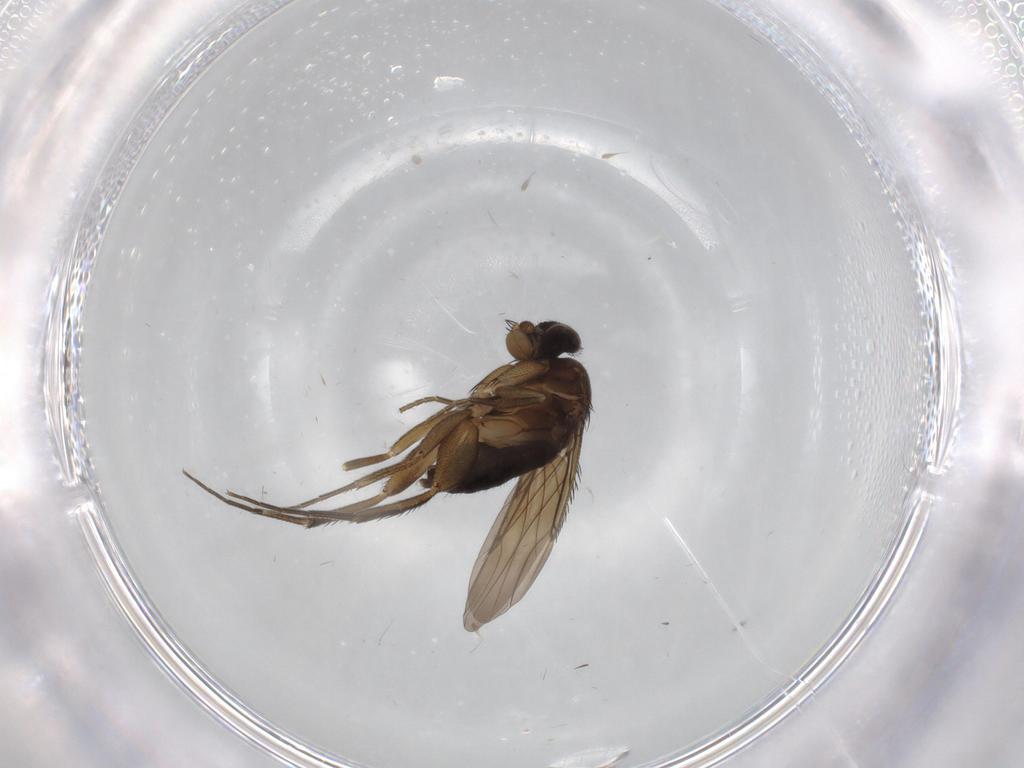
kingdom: Animalia
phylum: Arthropoda
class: Insecta
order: Diptera
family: Phoridae
